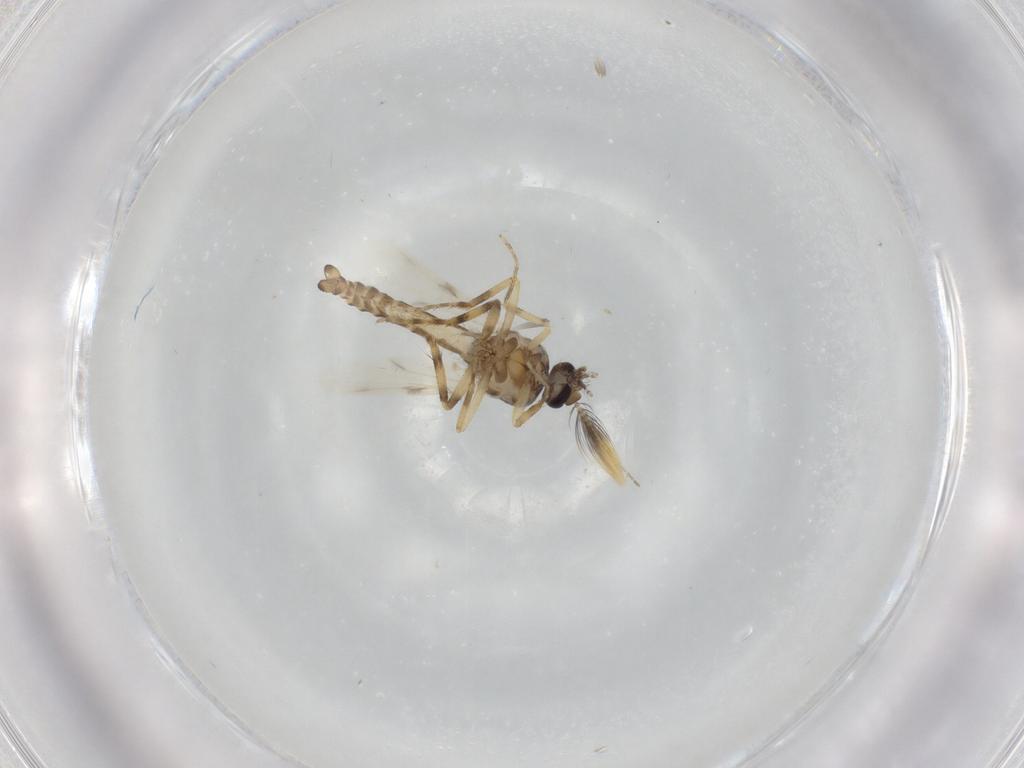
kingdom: Animalia
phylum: Arthropoda
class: Insecta
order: Diptera
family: Ceratopogonidae
